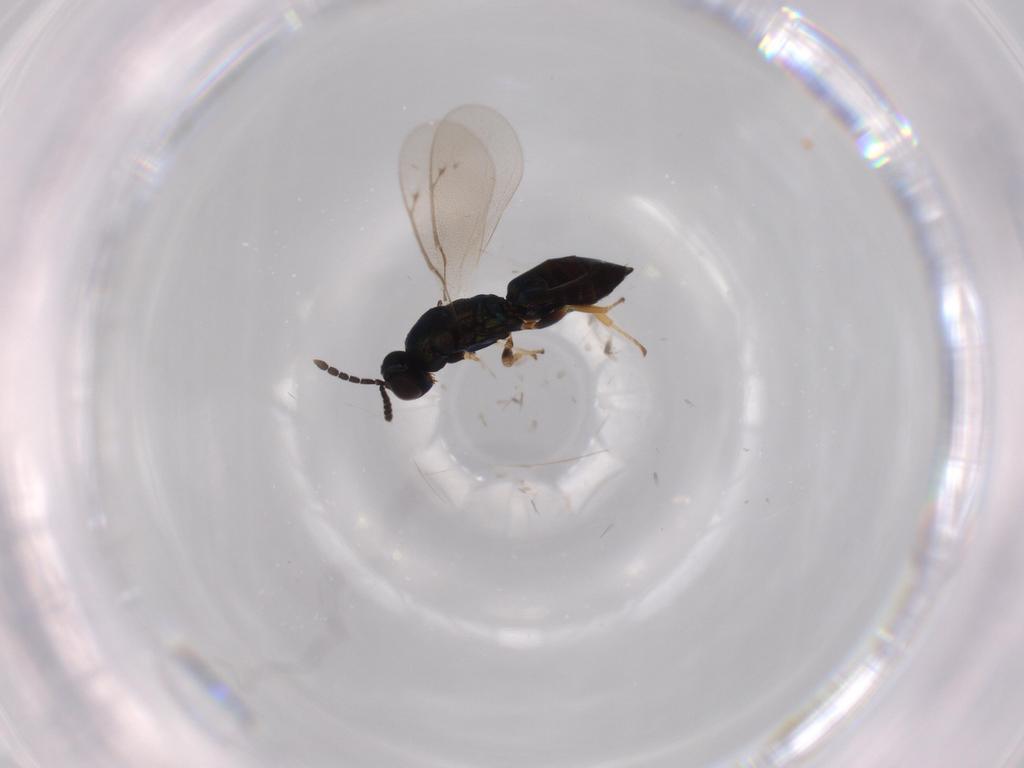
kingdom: Animalia
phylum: Arthropoda
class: Insecta
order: Hymenoptera
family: Eulophidae
